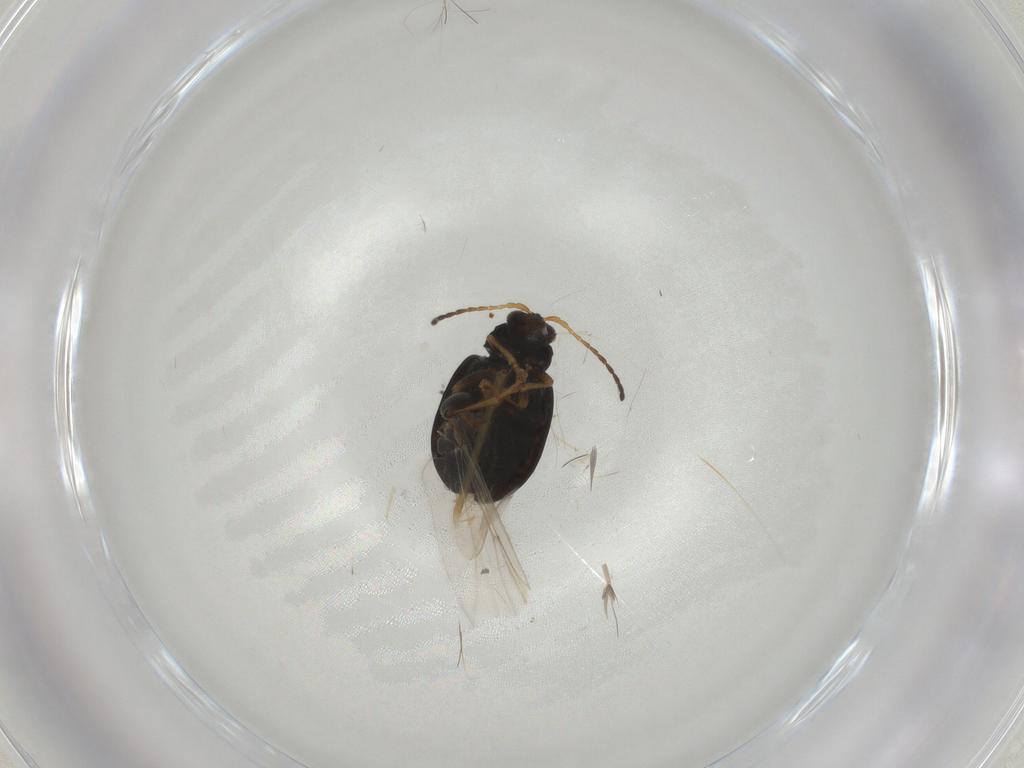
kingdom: Animalia
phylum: Arthropoda
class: Insecta
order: Coleoptera
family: Chrysomelidae
